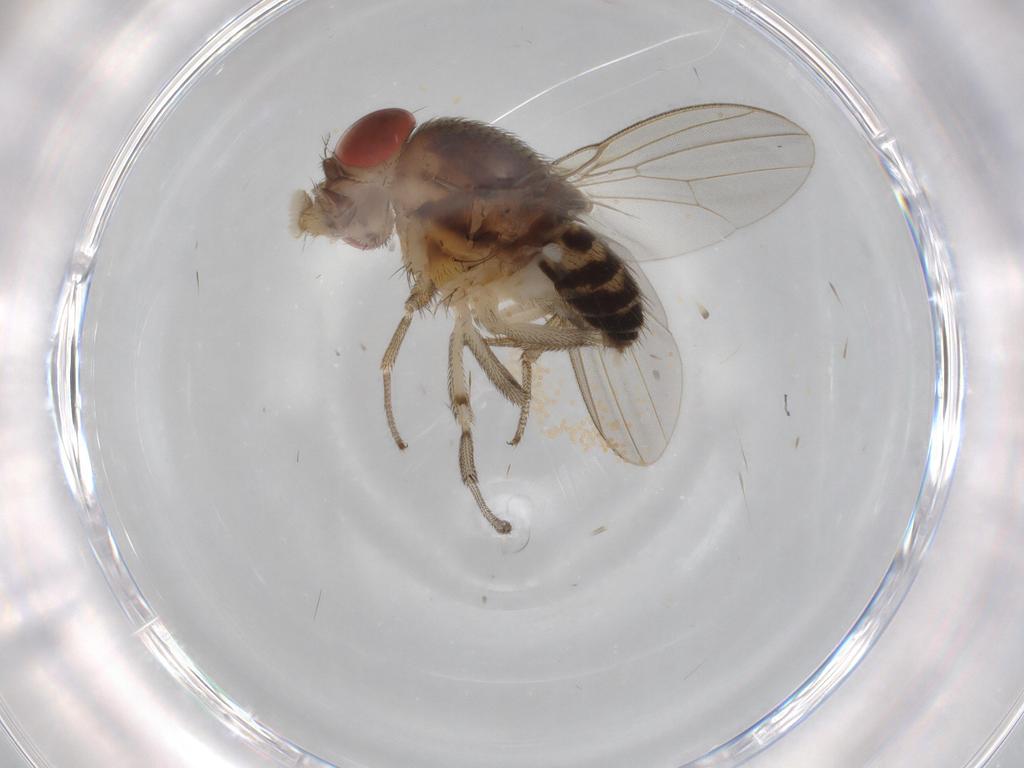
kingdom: Animalia
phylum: Arthropoda
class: Insecta
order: Diptera
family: Drosophilidae
